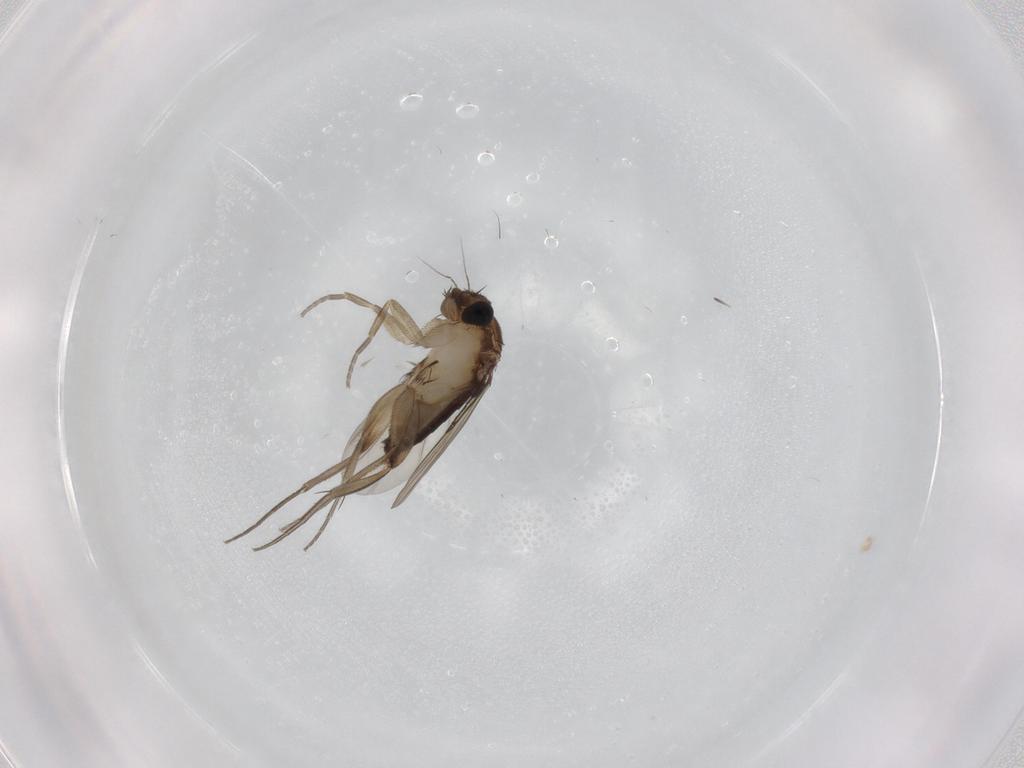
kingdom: Animalia
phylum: Arthropoda
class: Insecta
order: Diptera
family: Phoridae
